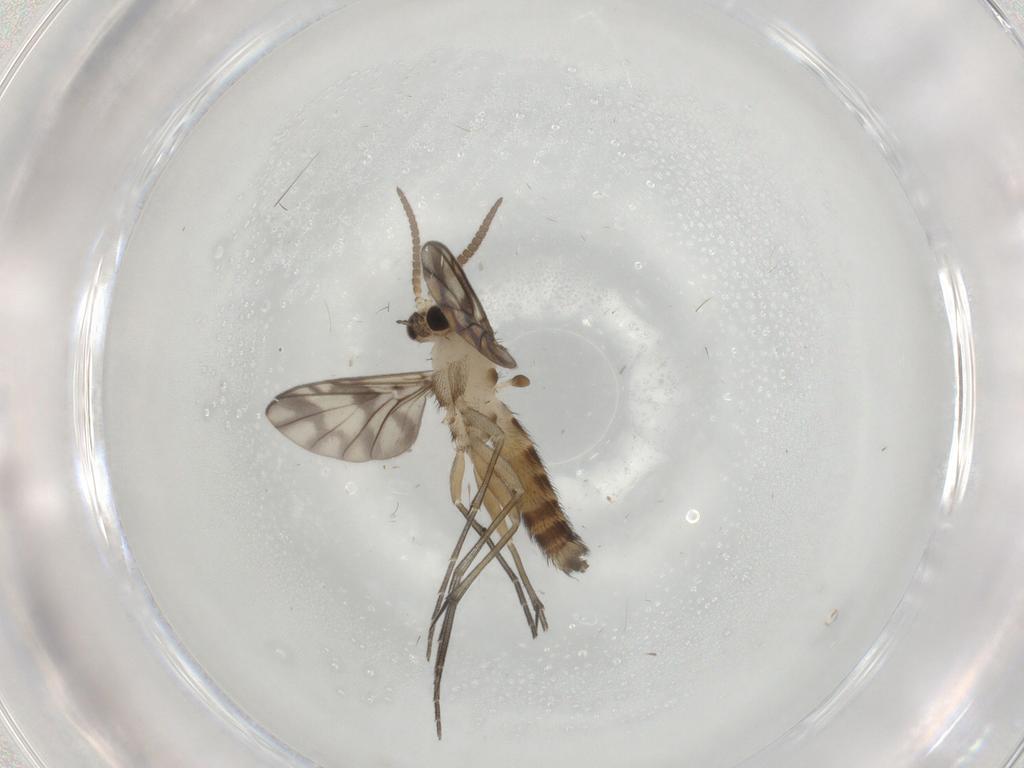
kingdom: Animalia
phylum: Arthropoda
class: Insecta
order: Diptera
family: Keroplatidae
